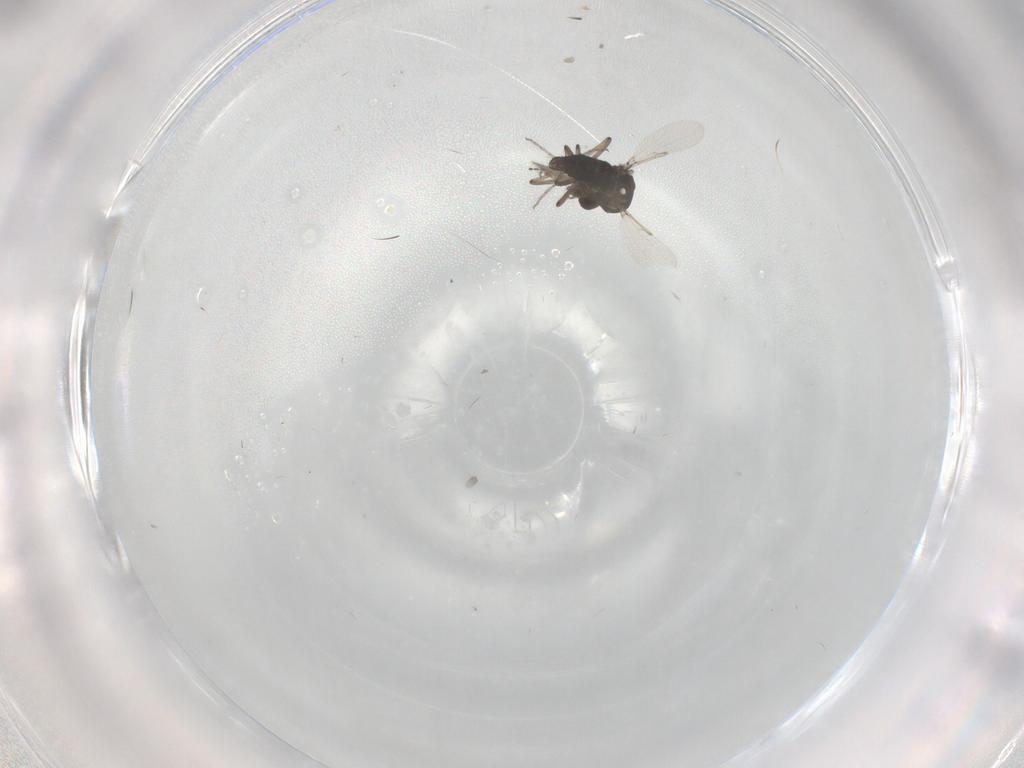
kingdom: Animalia
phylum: Arthropoda
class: Insecta
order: Diptera
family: Ceratopogonidae
